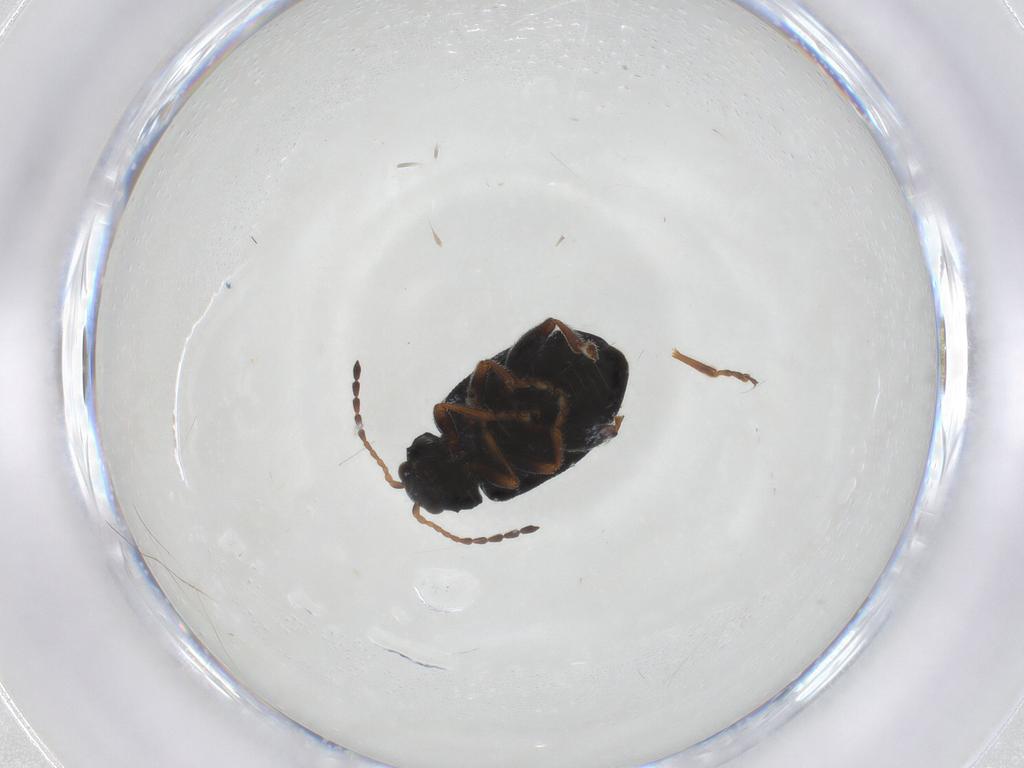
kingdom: Animalia
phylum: Arthropoda
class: Insecta
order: Coleoptera
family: Chrysomelidae
